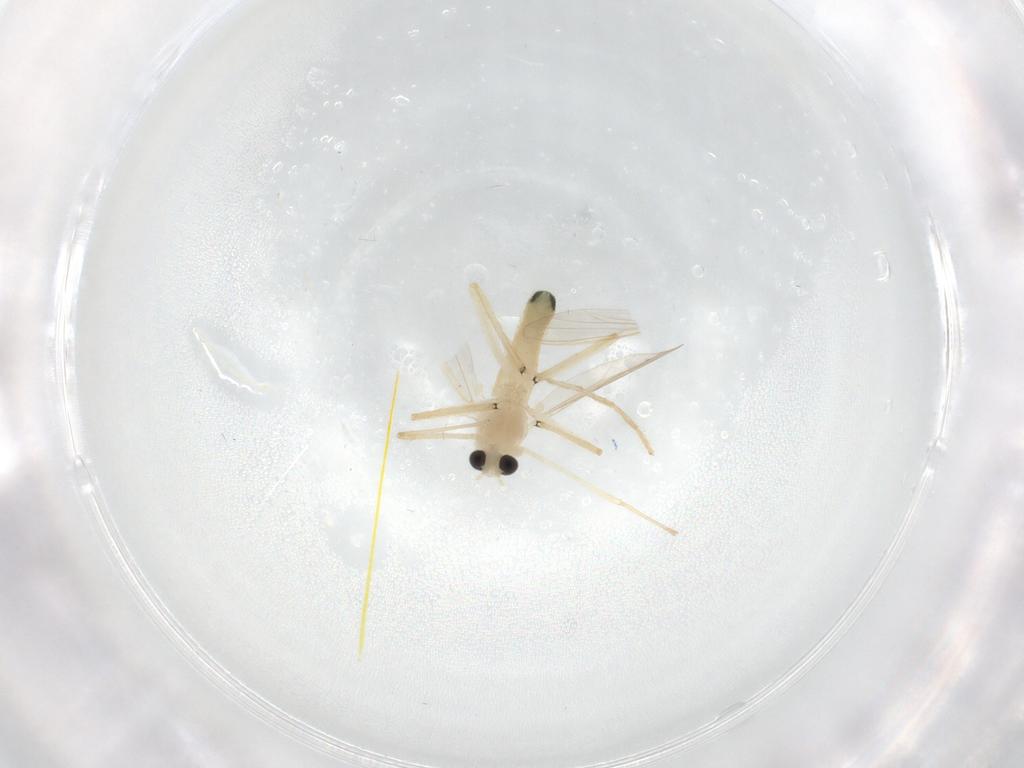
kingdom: Animalia
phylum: Arthropoda
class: Insecta
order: Diptera
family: Chironomidae
